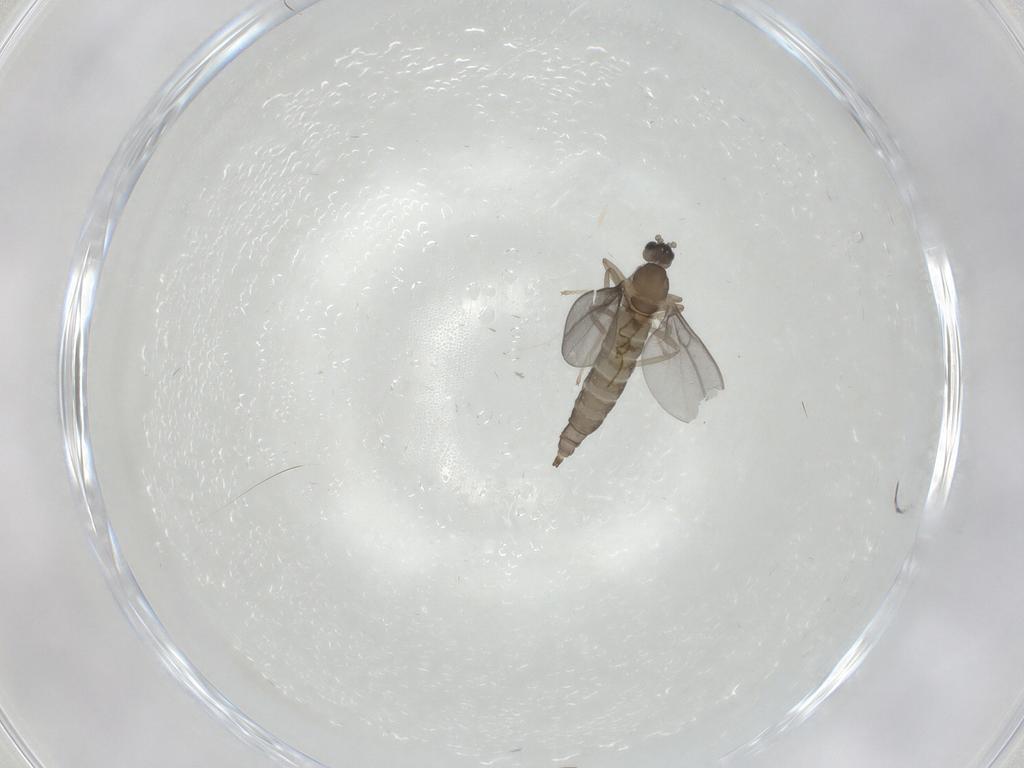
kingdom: Animalia
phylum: Arthropoda
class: Insecta
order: Diptera
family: Cecidomyiidae
